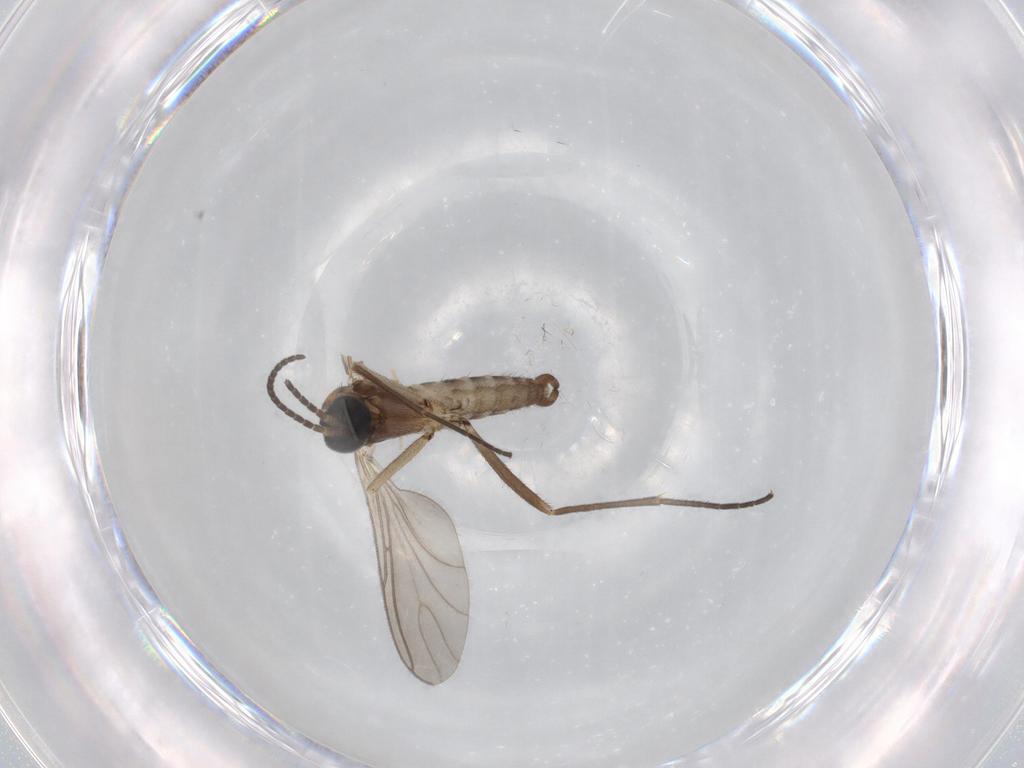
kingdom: Animalia
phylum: Arthropoda
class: Insecta
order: Diptera
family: Sciaridae
